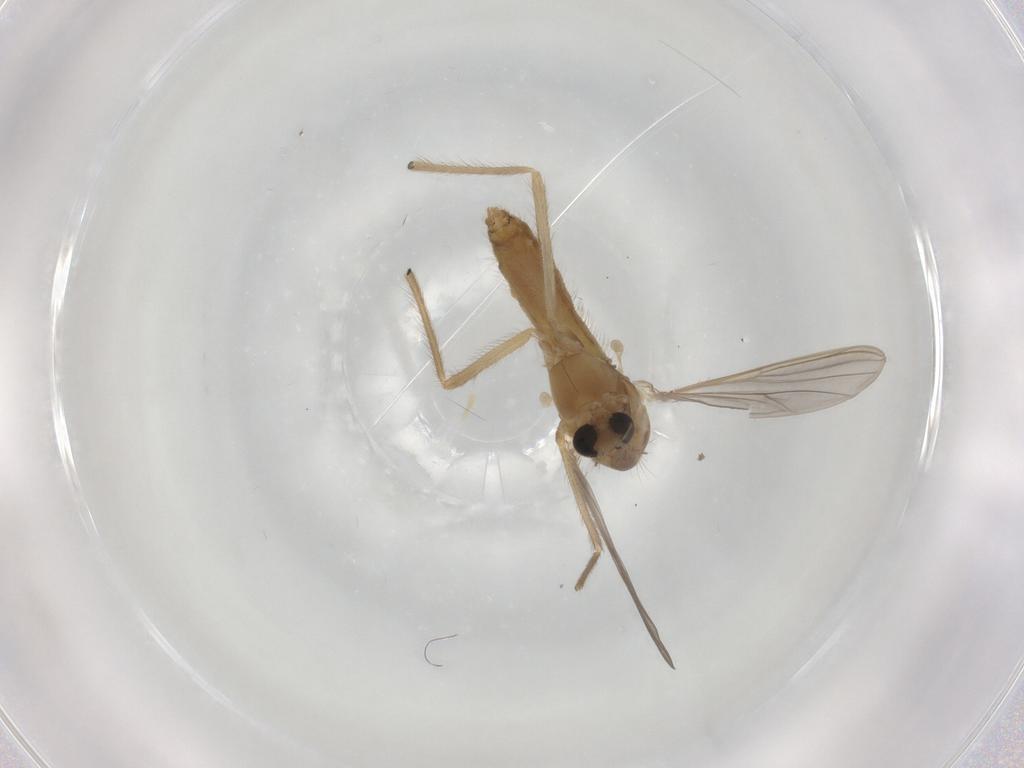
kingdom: Animalia
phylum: Arthropoda
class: Insecta
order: Diptera
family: Chironomidae
